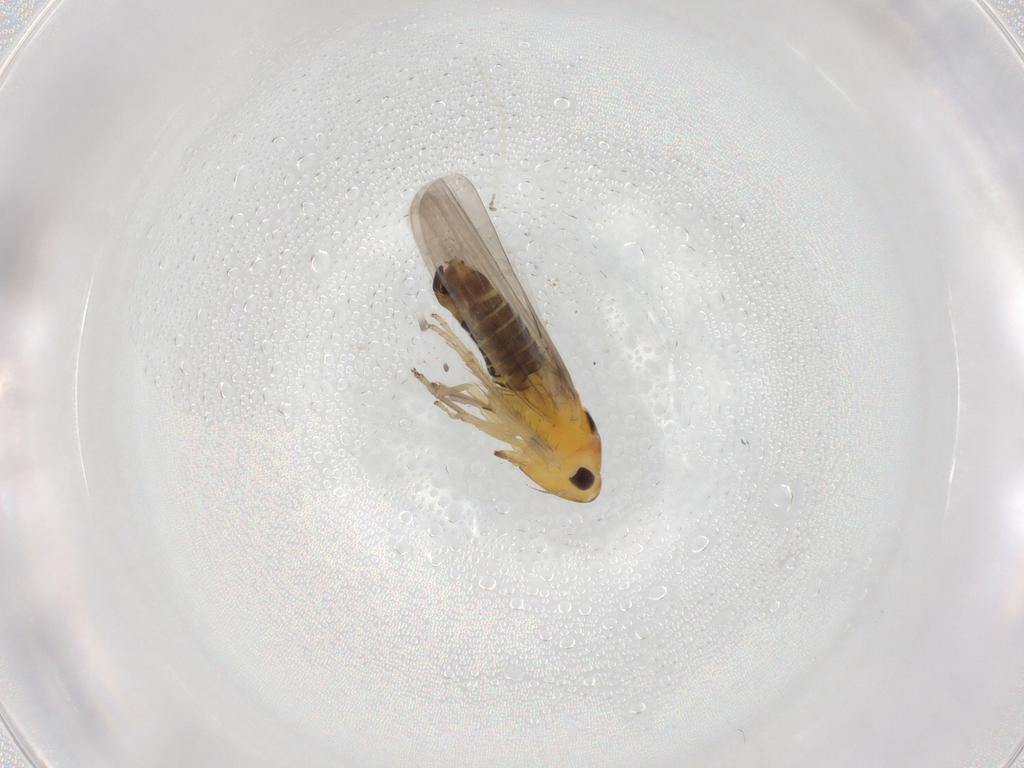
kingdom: Animalia
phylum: Arthropoda
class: Insecta
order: Hemiptera
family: Cicadellidae
